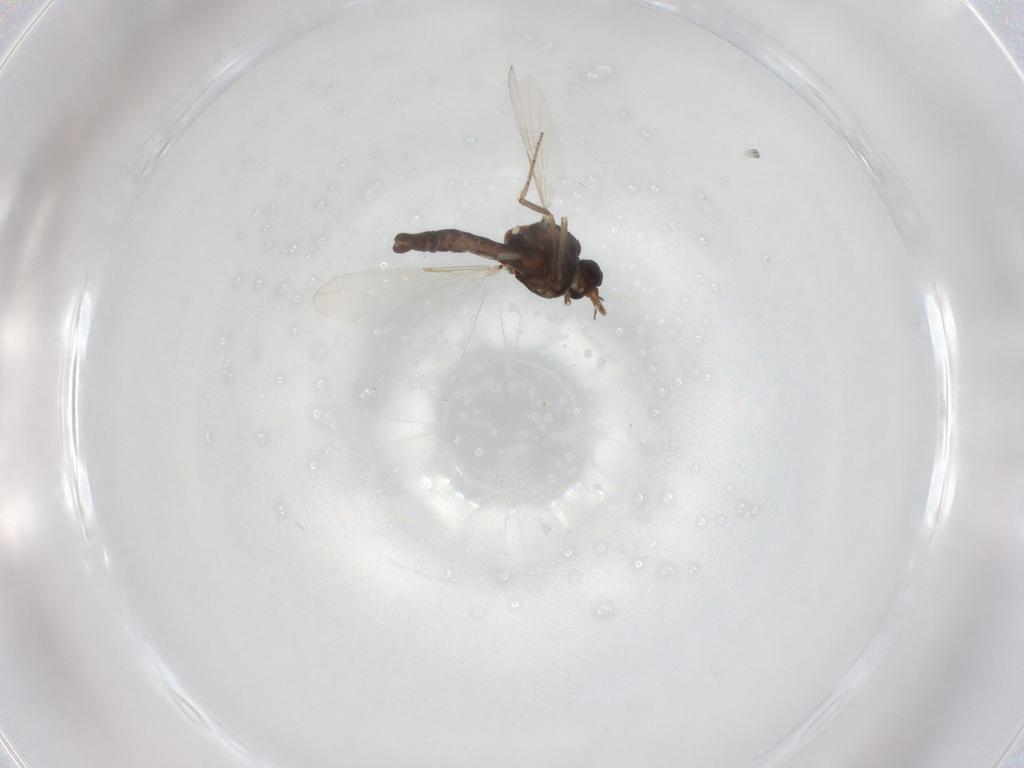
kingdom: Animalia
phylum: Arthropoda
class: Insecta
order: Diptera
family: Ceratopogonidae
